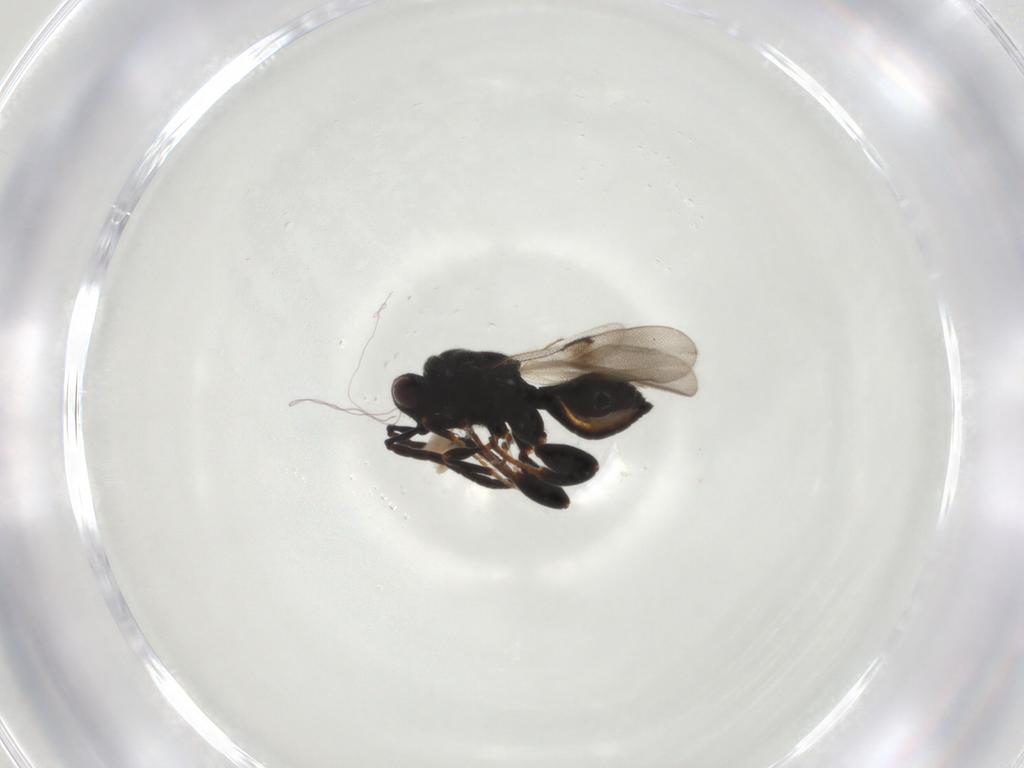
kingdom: Animalia
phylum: Arthropoda
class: Insecta
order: Hymenoptera
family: Chalcididae
